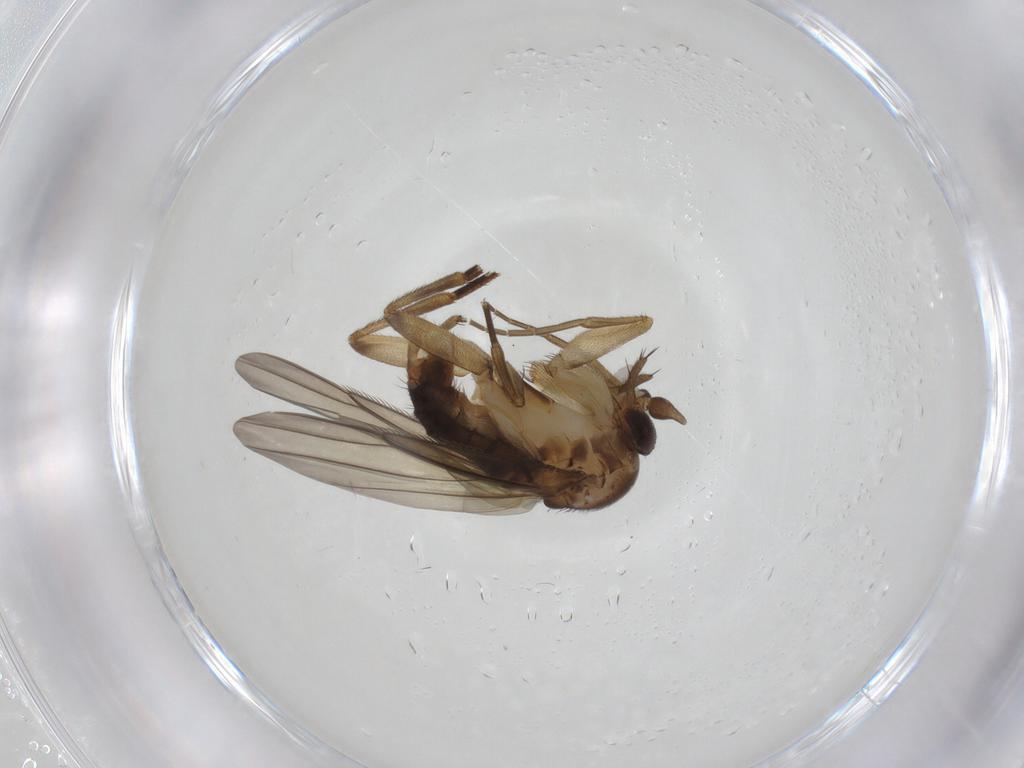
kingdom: Animalia
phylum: Arthropoda
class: Insecta
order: Diptera
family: Phoridae
